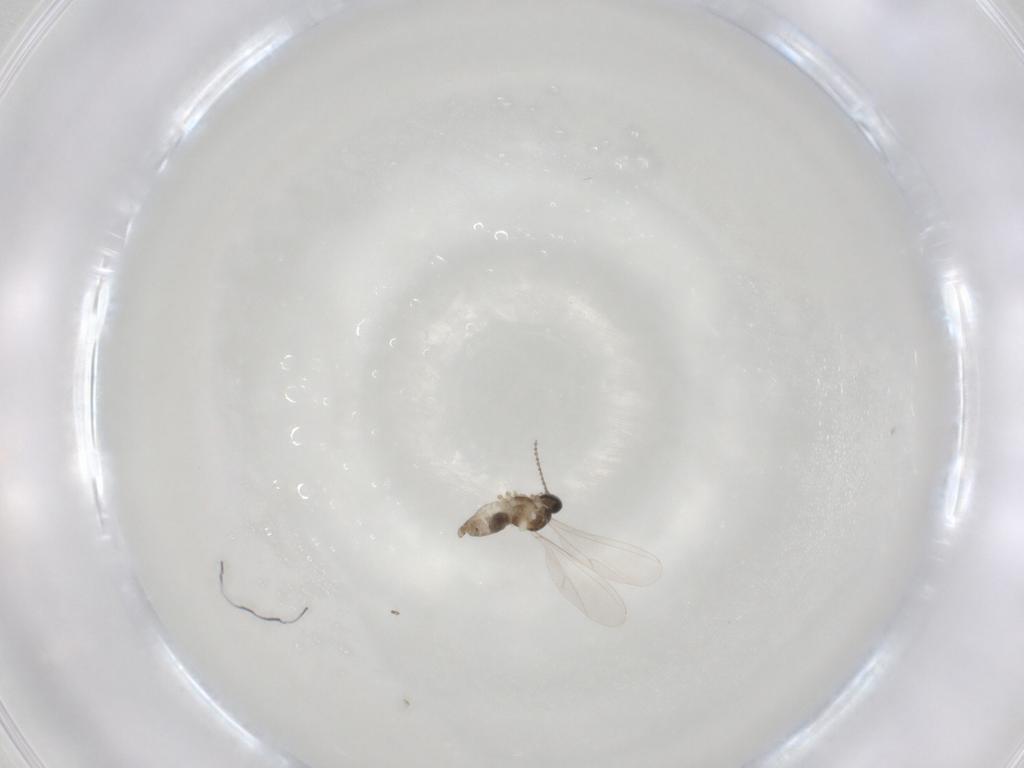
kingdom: Animalia
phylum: Arthropoda
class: Insecta
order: Diptera
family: Cecidomyiidae
